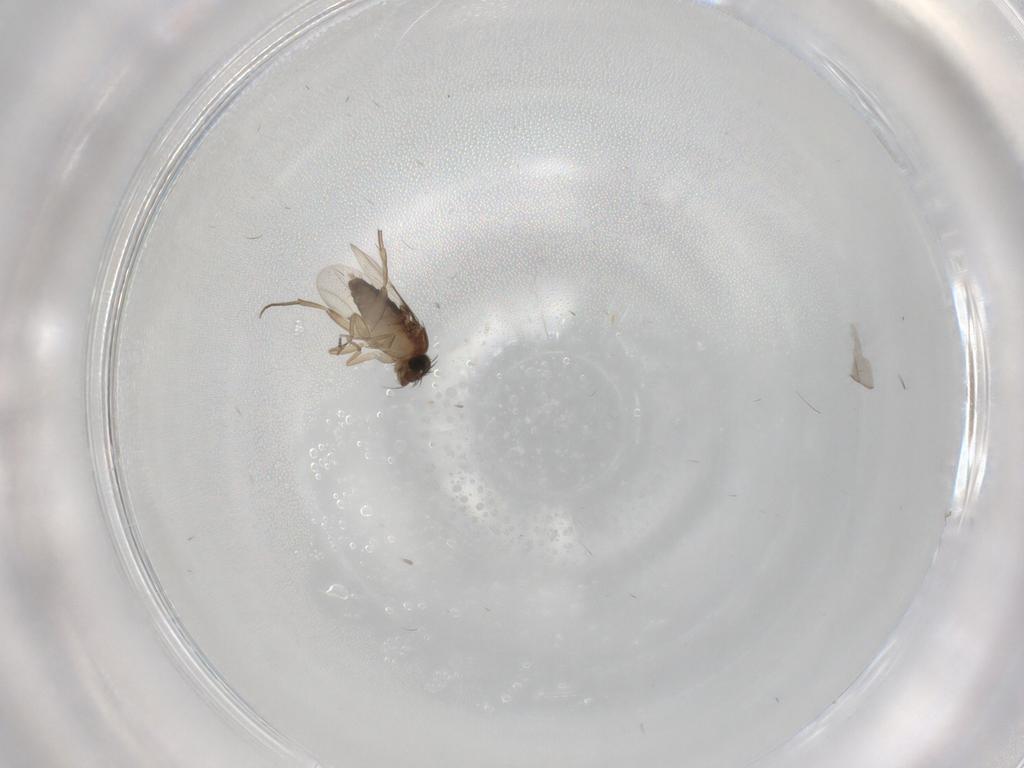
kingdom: Animalia
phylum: Arthropoda
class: Insecta
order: Diptera
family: Phoridae
